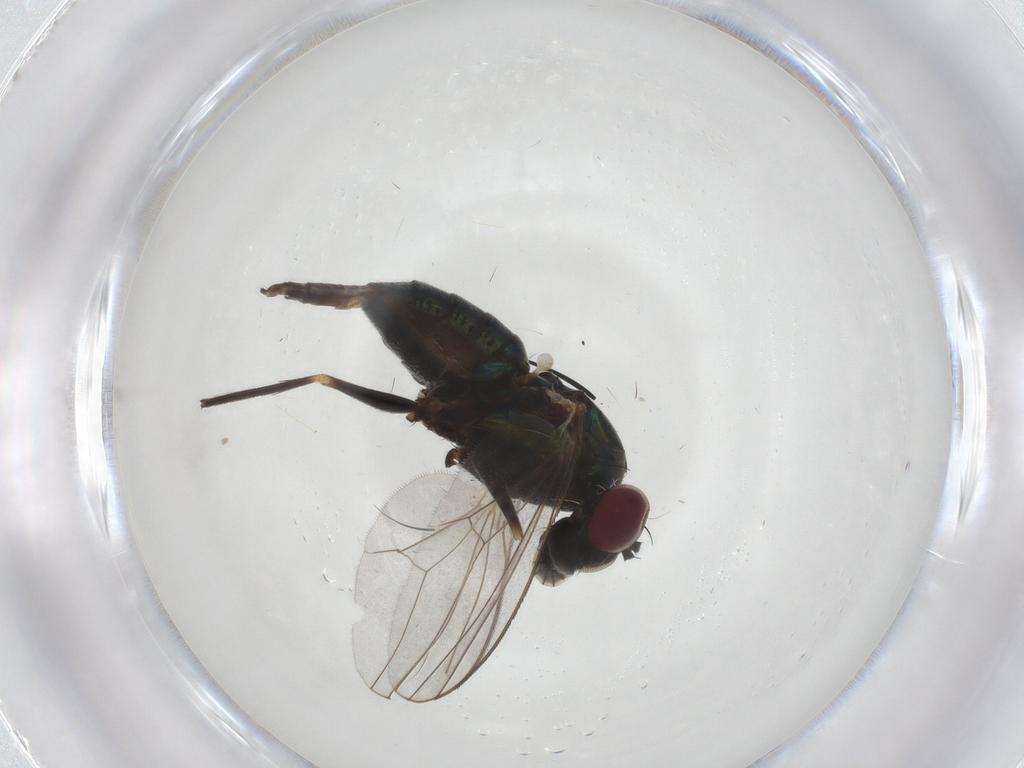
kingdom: Animalia
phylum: Arthropoda
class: Insecta
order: Diptera
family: Dolichopodidae
